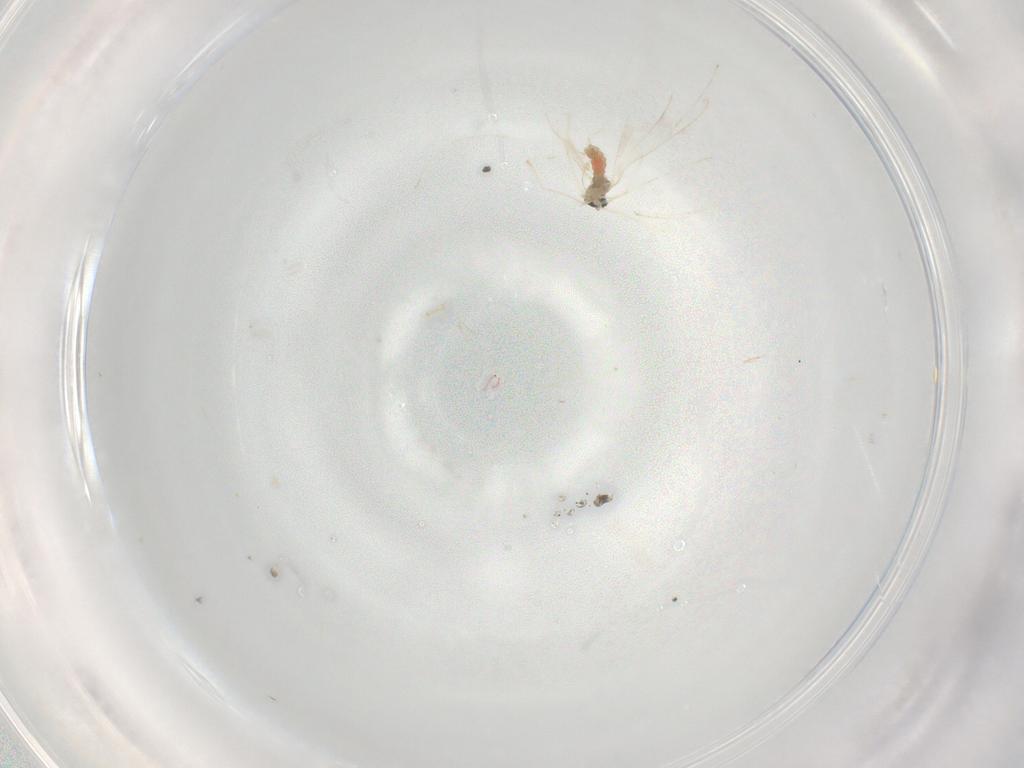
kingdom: Animalia
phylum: Arthropoda
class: Insecta
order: Diptera
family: Cecidomyiidae
